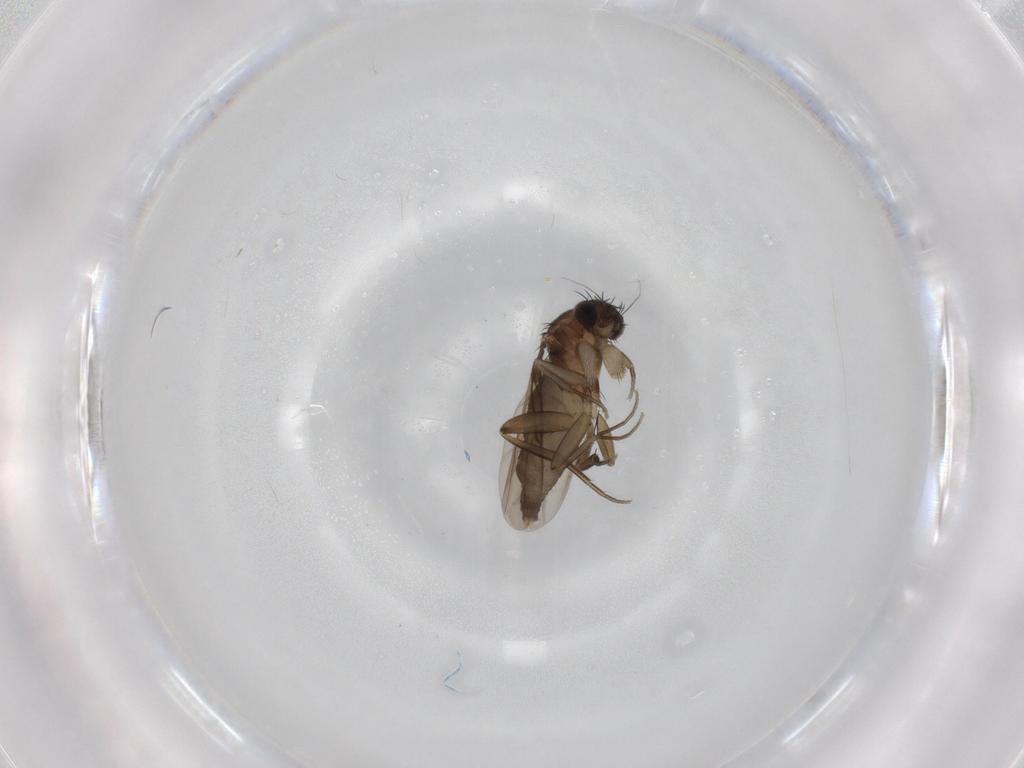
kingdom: Animalia
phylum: Arthropoda
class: Insecta
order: Diptera
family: Phoridae
